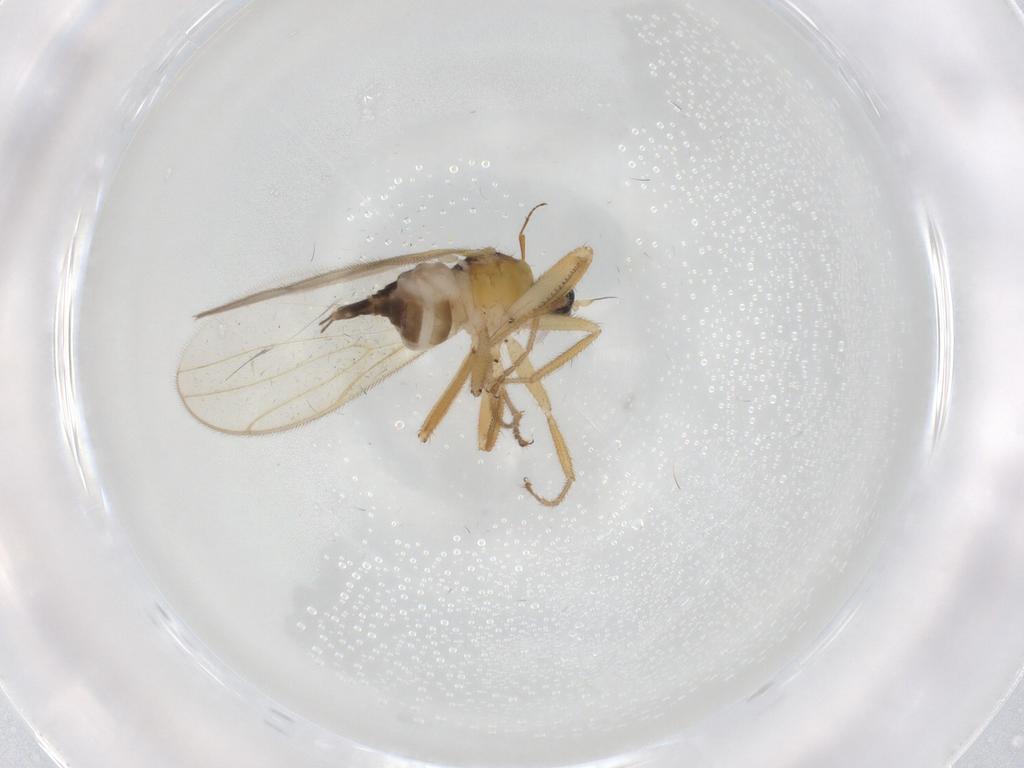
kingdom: Animalia
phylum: Arthropoda
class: Insecta
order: Diptera
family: Hybotidae
